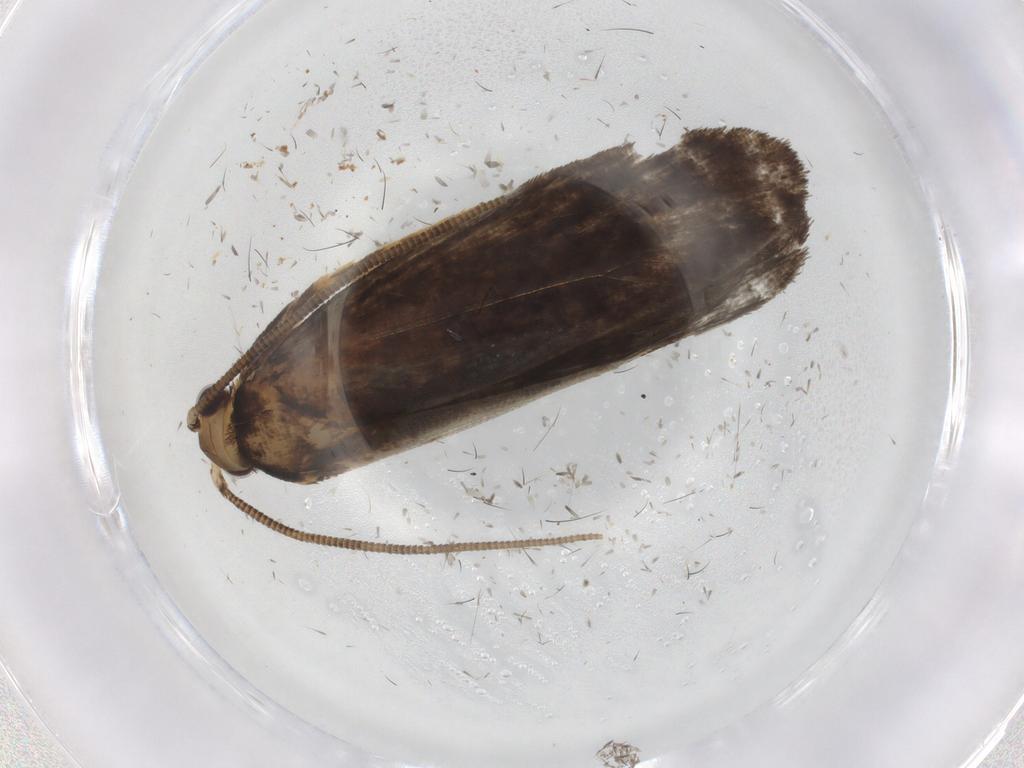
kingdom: Animalia
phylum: Arthropoda
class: Insecta
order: Lepidoptera
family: Tineidae
